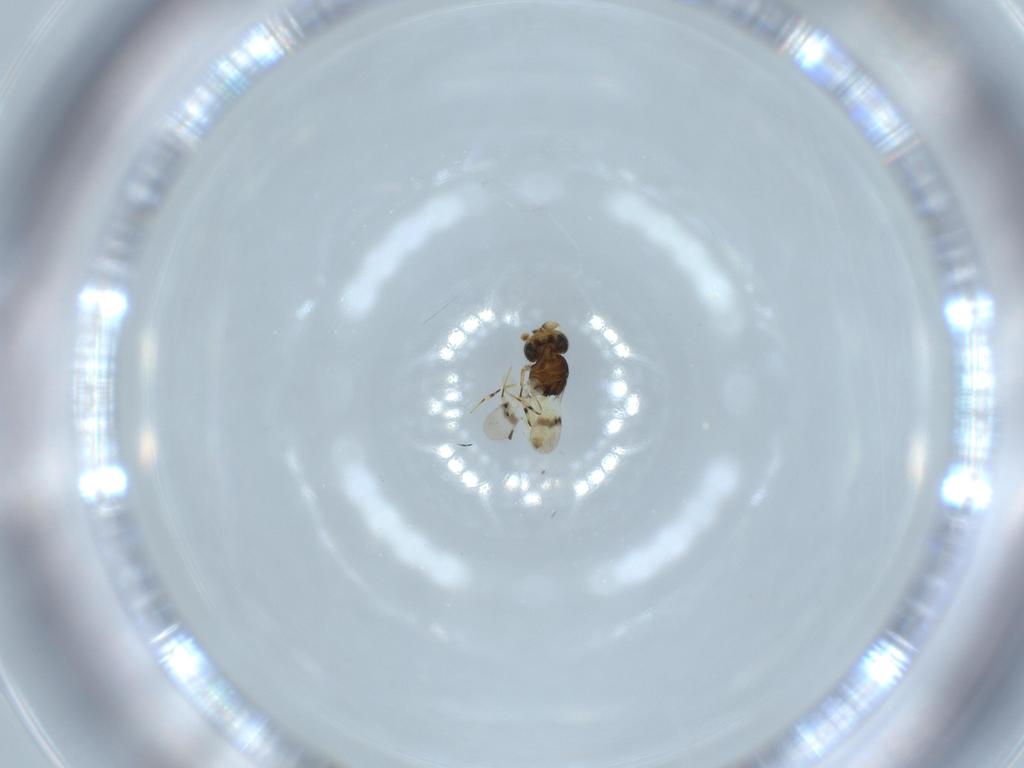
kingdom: Animalia
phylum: Arthropoda
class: Insecta
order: Hymenoptera
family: Scelionidae
